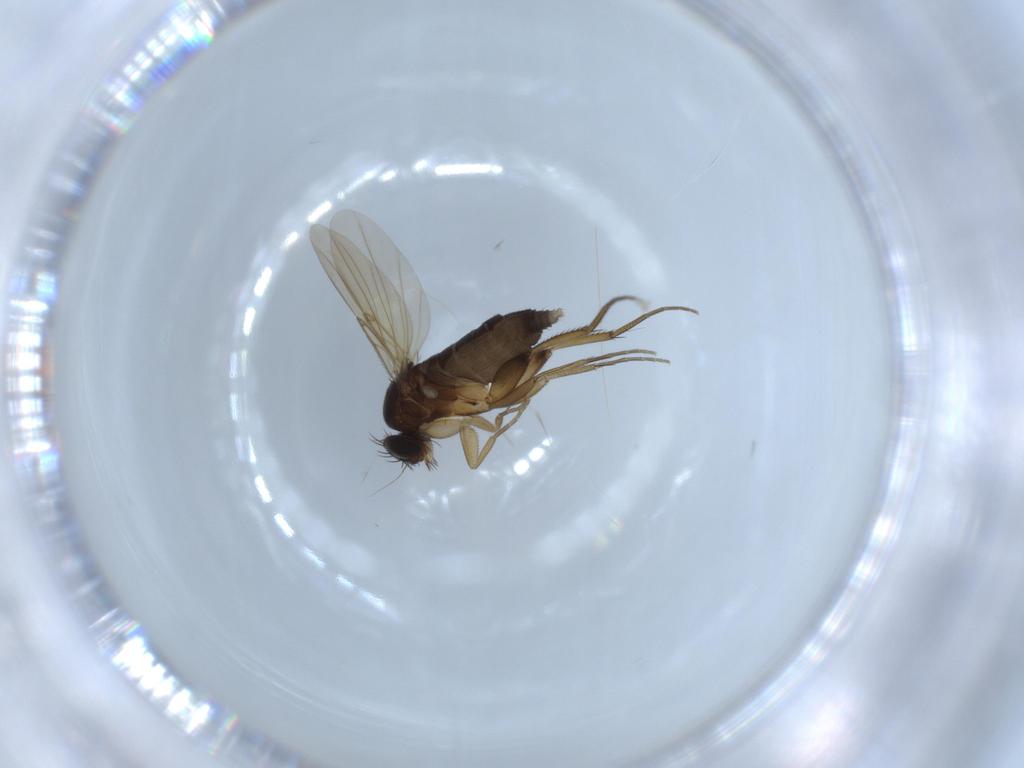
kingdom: Animalia
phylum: Arthropoda
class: Insecta
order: Diptera
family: Phoridae
